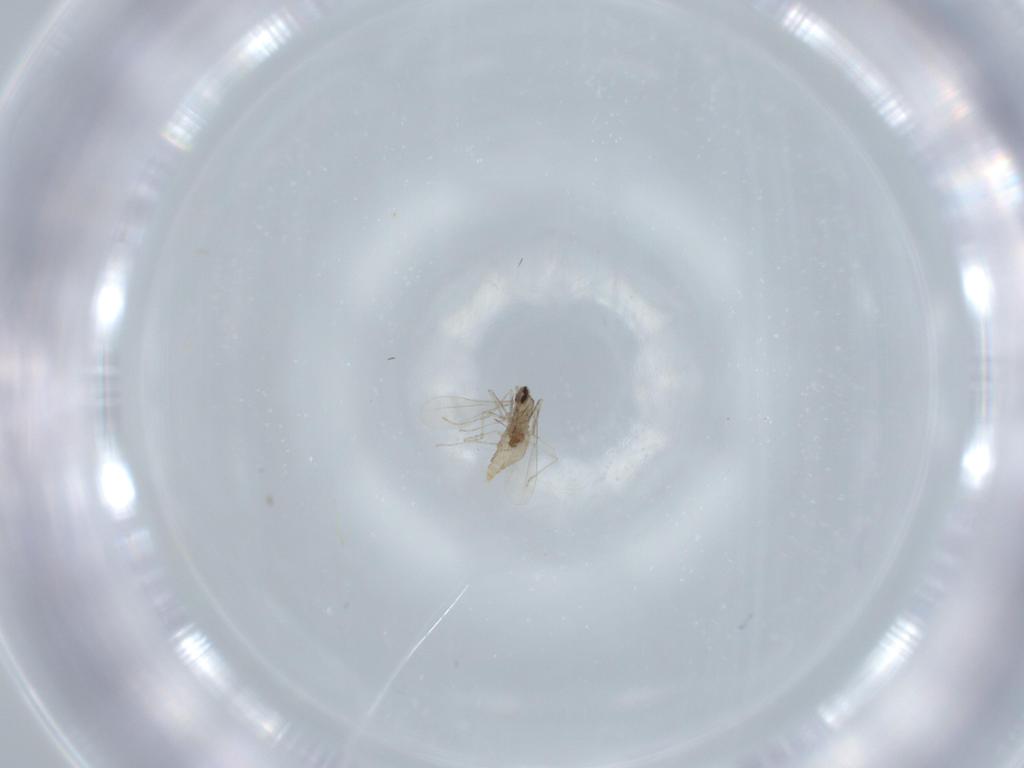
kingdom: Animalia
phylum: Arthropoda
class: Insecta
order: Diptera
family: Cecidomyiidae
